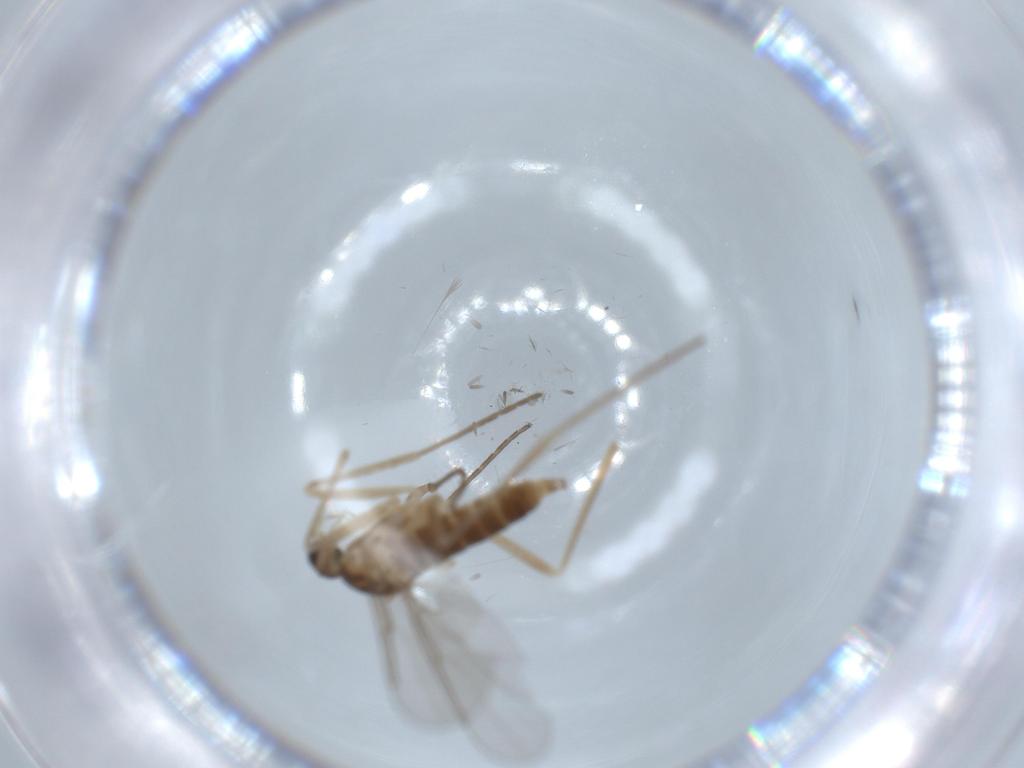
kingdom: Animalia
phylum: Arthropoda
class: Insecta
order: Diptera
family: Cecidomyiidae
